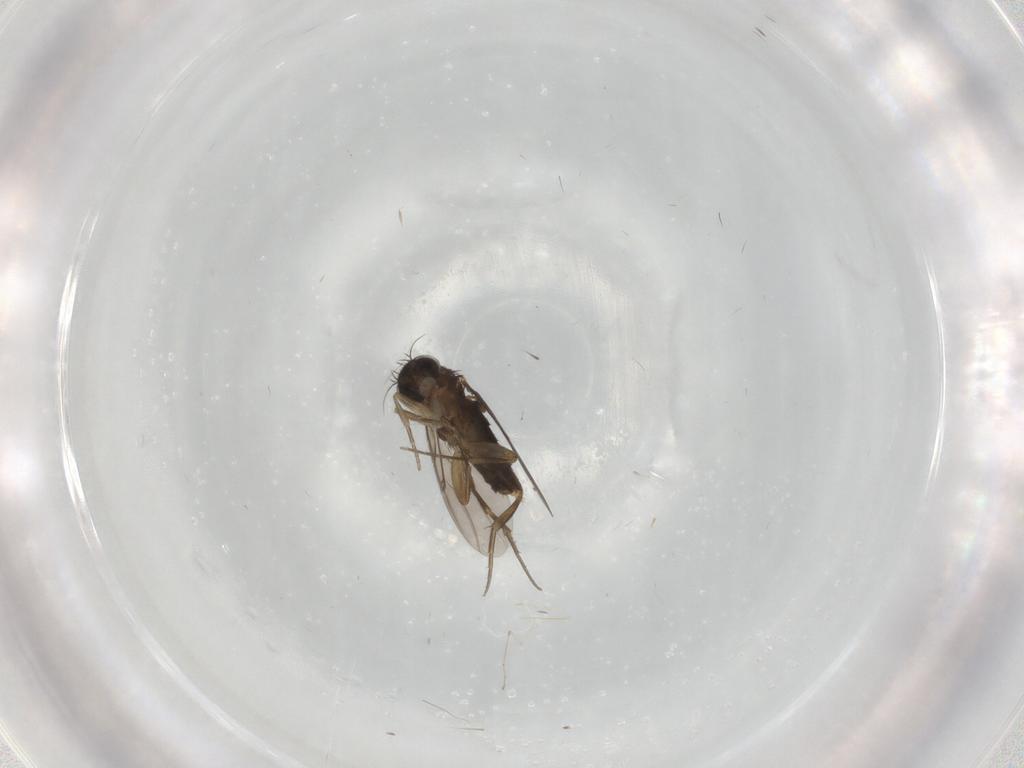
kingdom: Animalia
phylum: Arthropoda
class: Insecta
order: Diptera
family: Phoridae
